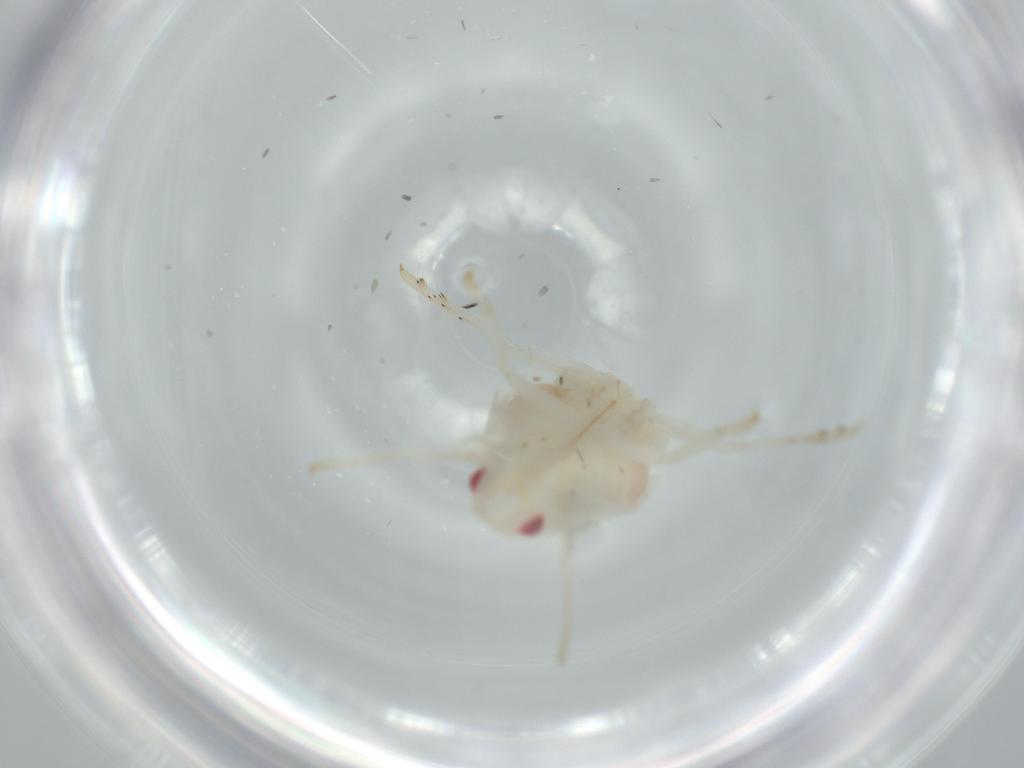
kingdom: Animalia
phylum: Arthropoda
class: Insecta
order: Hemiptera
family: Flatidae
